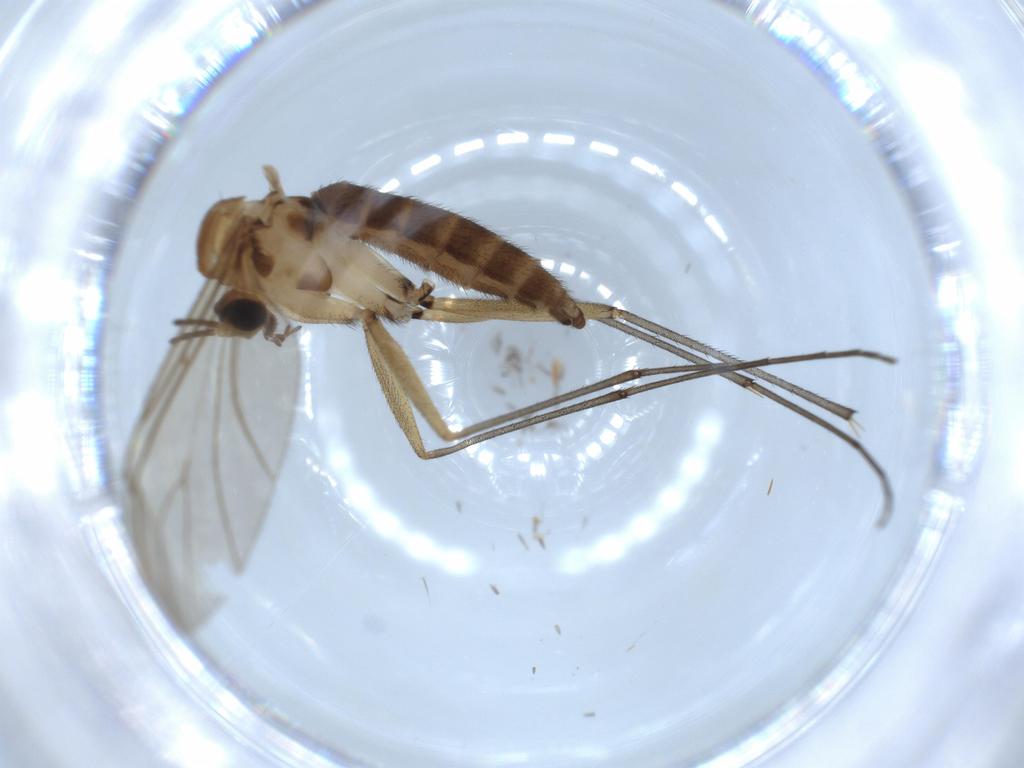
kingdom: Animalia
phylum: Arthropoda
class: Insecta
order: Diptera
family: Sciaridae
